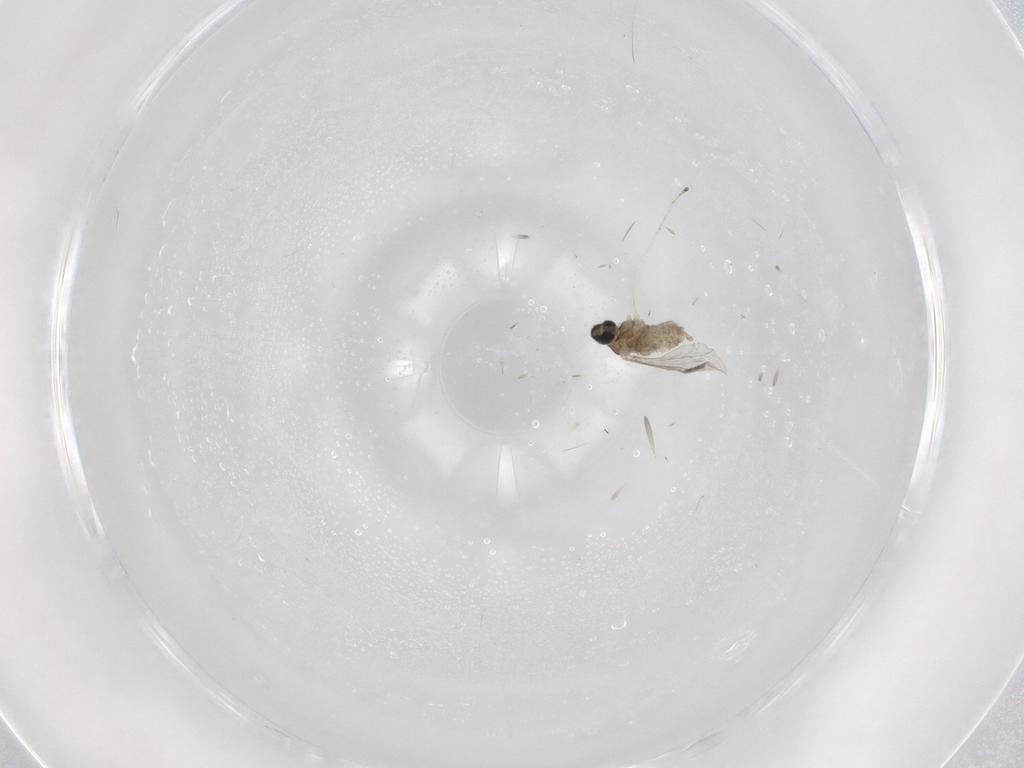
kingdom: Animalia
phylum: Arthropoda
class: Insecta
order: Diptera
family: Cecidomyiidae
